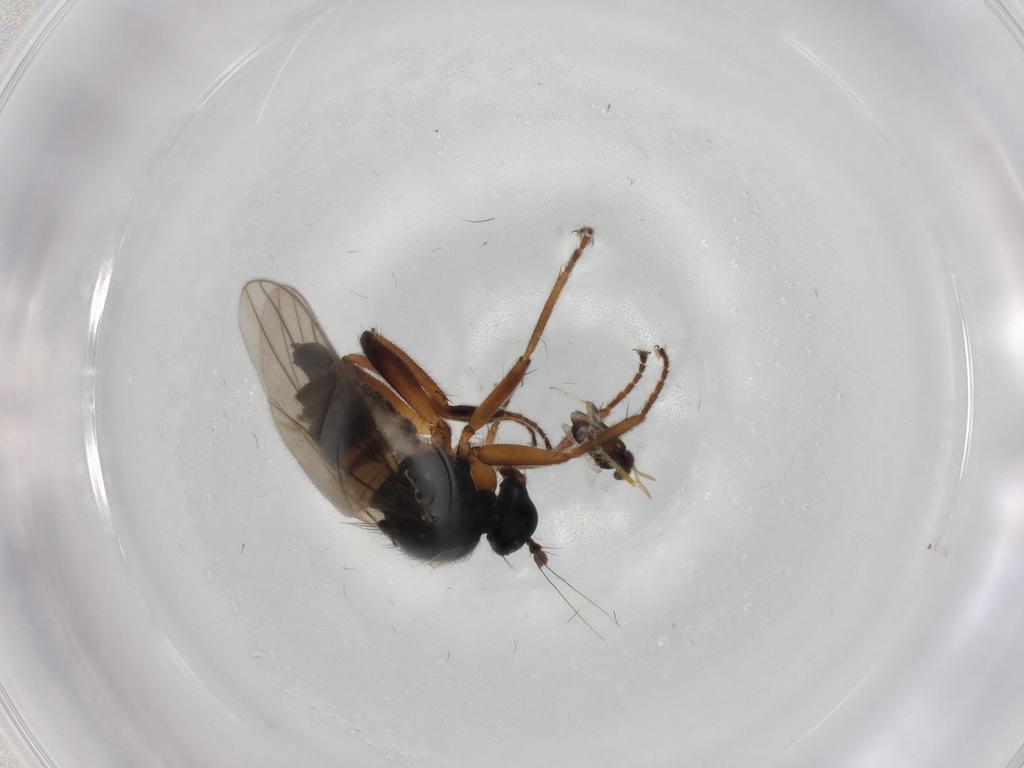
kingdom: Animalia
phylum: Arthropoda
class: Insecta
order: Diptera
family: Hybotidae
